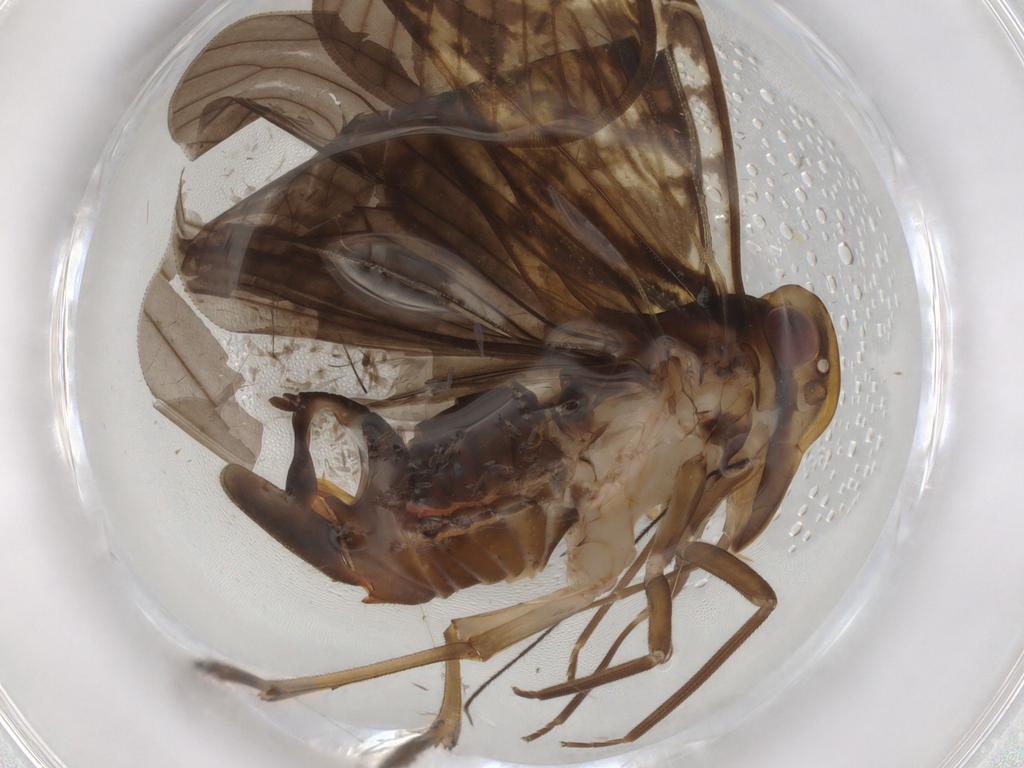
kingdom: Animalia
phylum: Arthropoda
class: Insecta
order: Hemiptera
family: Cixiidae
